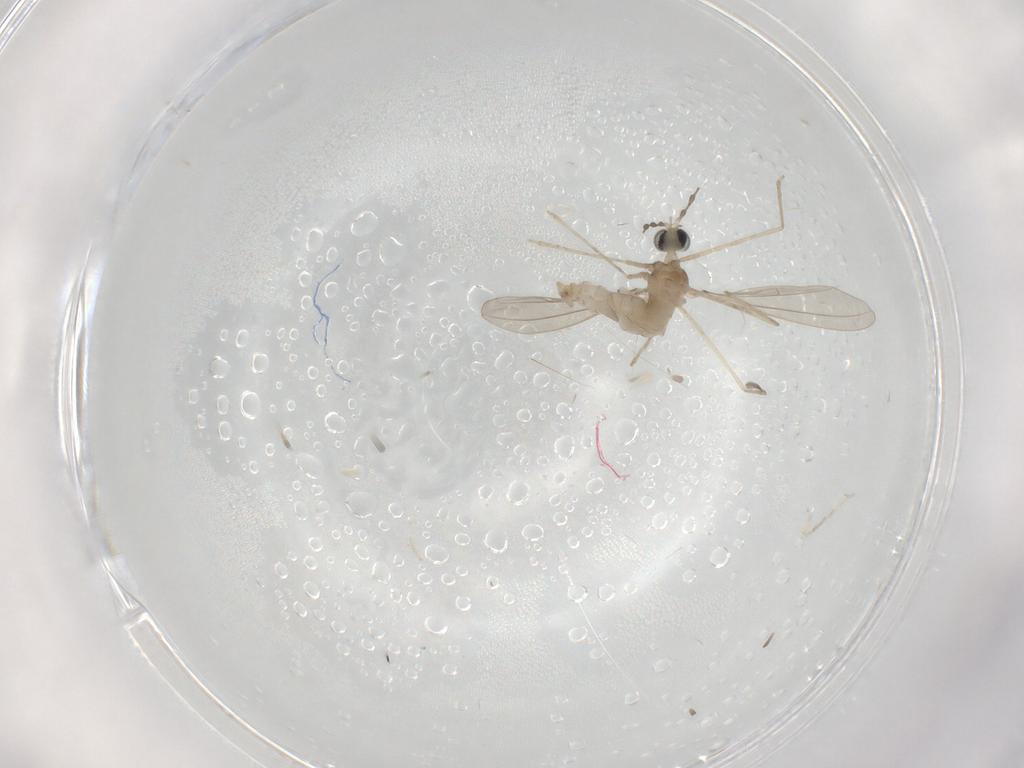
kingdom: Animalia
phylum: Arthropoda
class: Insecta
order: Diptera
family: Cecidomyiidae
